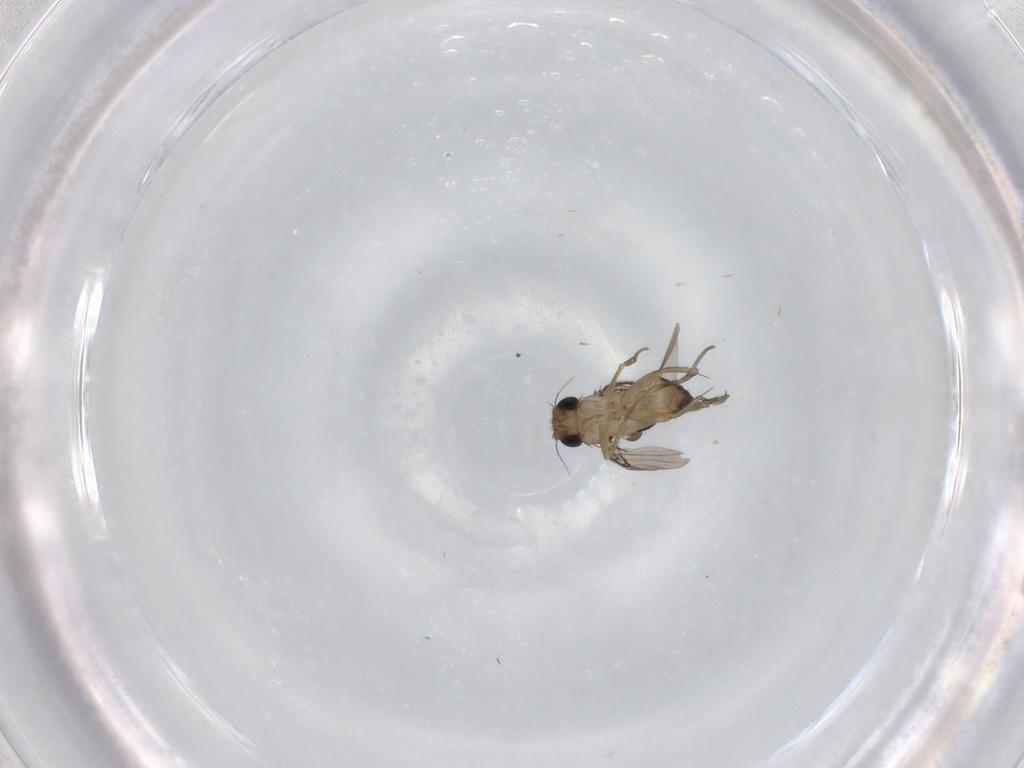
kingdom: Animalia
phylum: Arthropoda
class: Insecta
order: Diptera
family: Phoridae
